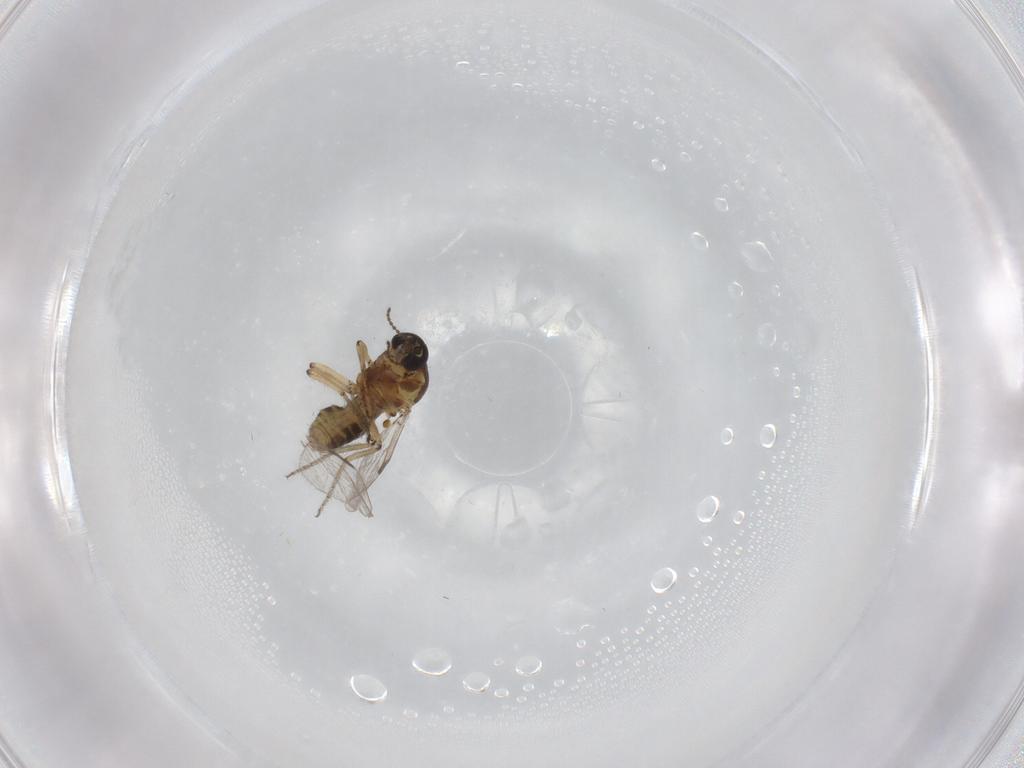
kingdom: Animalia
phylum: Arthropoda
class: Insecta
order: Diptera
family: Ceratopogonidae
